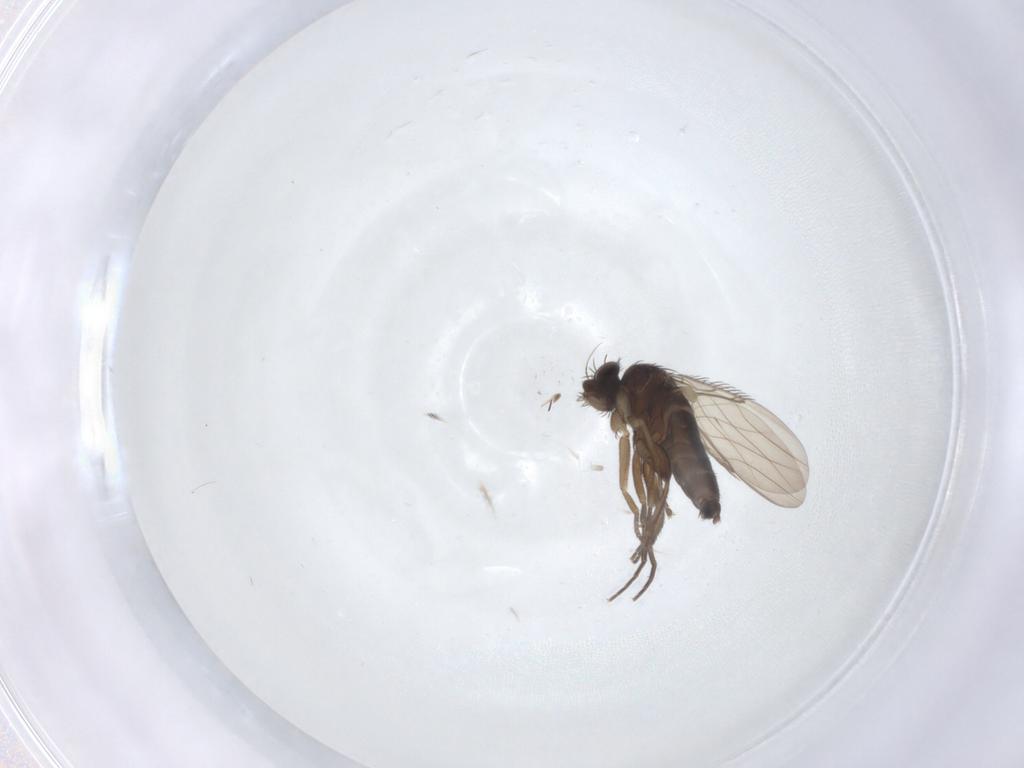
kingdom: Animalia
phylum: Arthropoda
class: Insecta
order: Diptera
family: Phoridae
